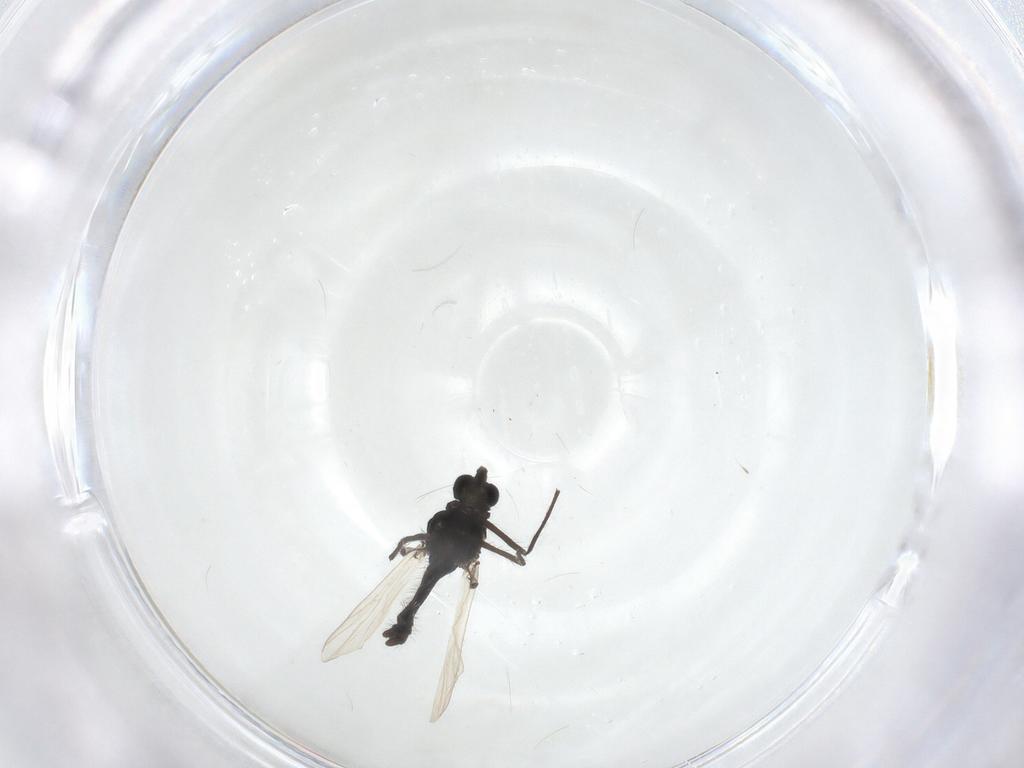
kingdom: Animalia
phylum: Arthropoda
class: Insecta
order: Diptera
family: Chironomidae
